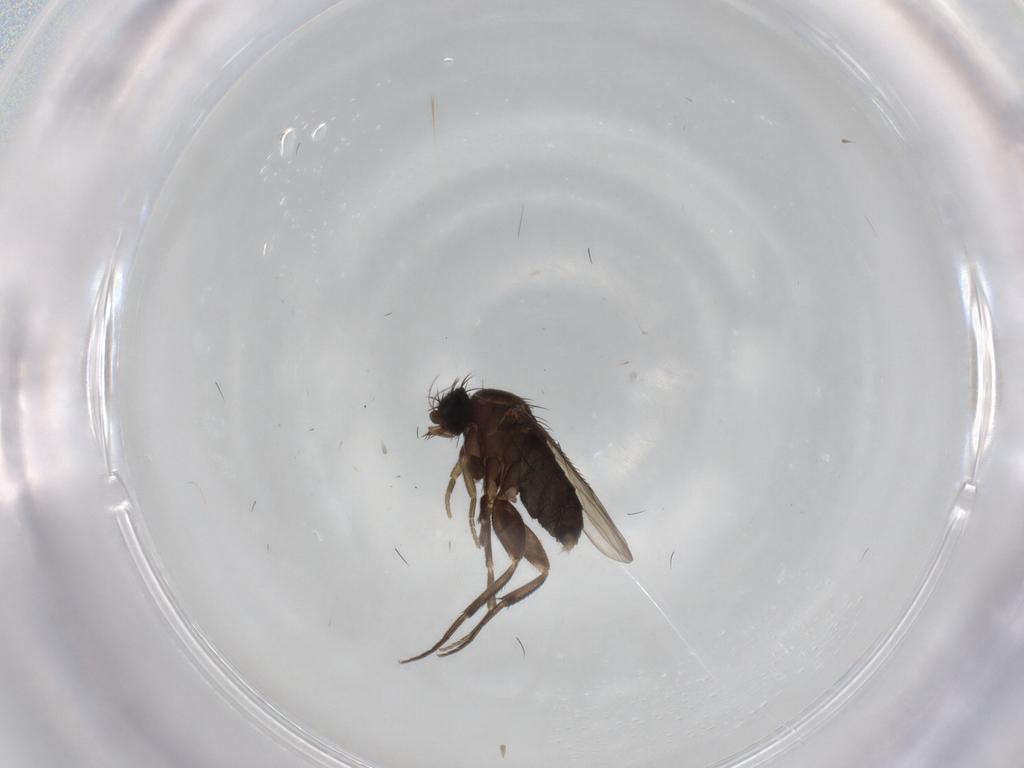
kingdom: Animalia
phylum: Arthropoda
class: Insecta
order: Diptera
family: Phoridae
